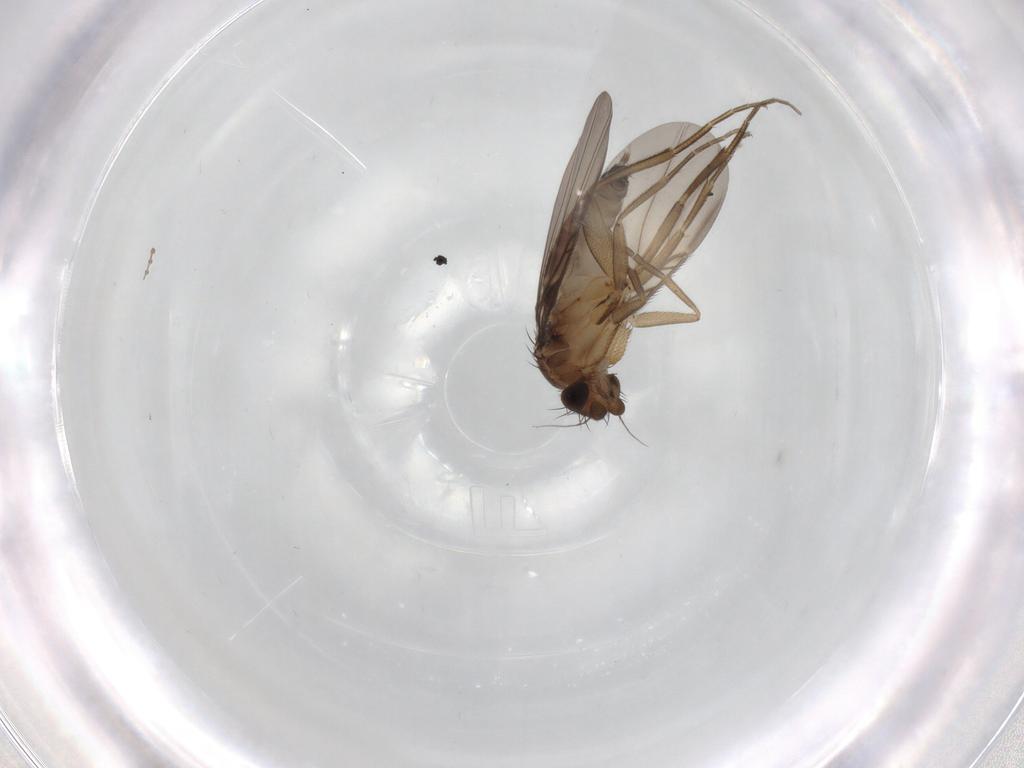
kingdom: Animalia
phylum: Arthropoda
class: Insecta
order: Diptera
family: Phoridae
